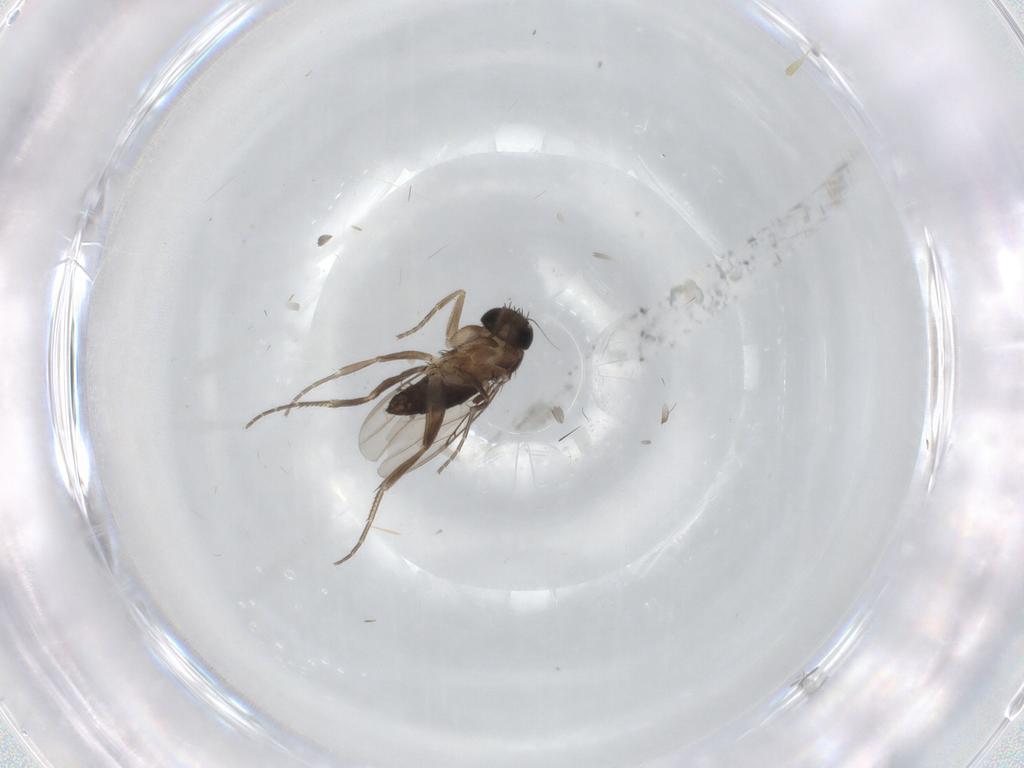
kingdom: Animalia
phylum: Arthropoda
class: Insecta
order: Diptera
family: Phoridae
